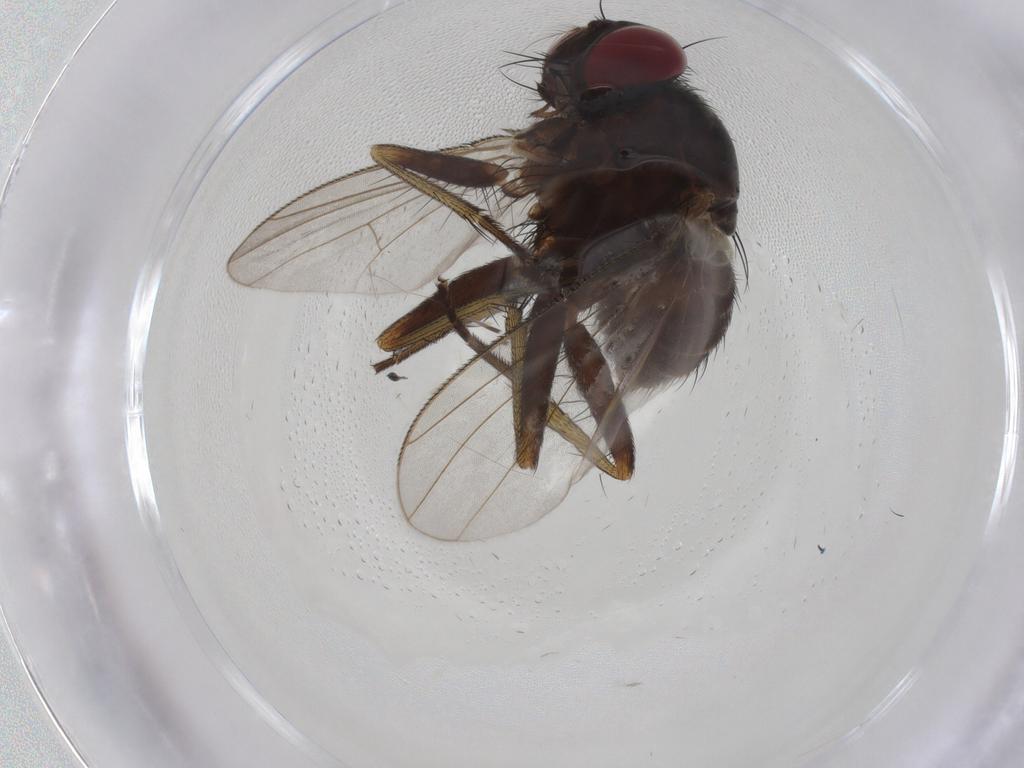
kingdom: Animalia
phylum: Arthropoda
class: Insecta
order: Diptera
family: Muscidae
